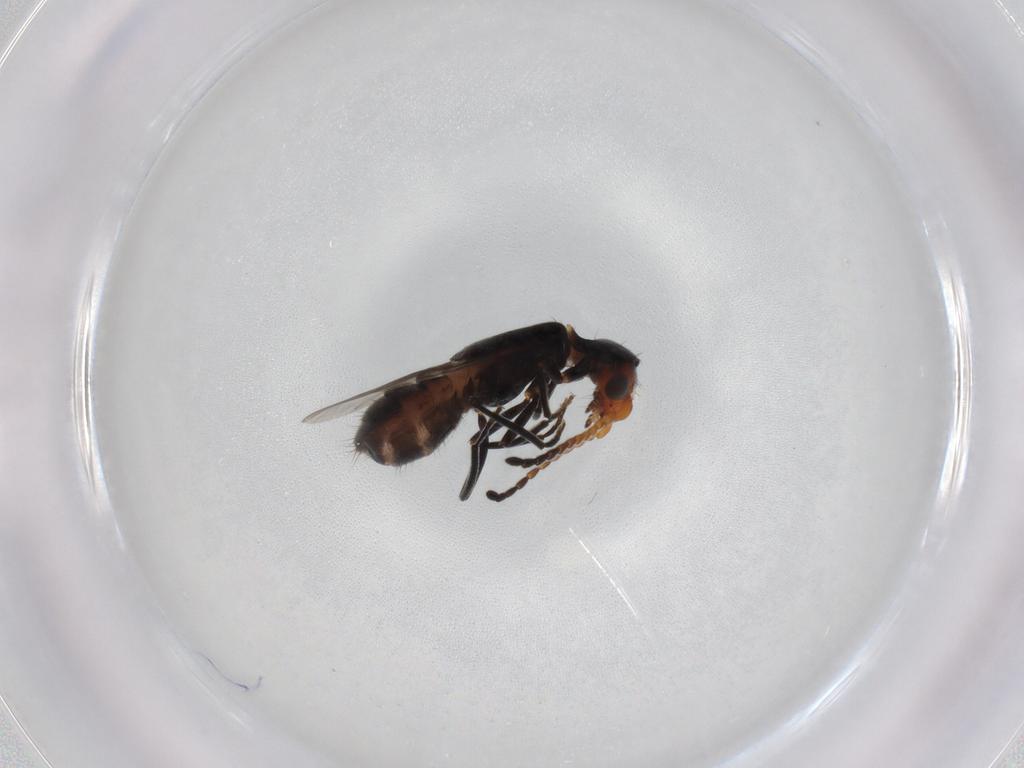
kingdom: Animalia
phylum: Arthropoda
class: Insecta
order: Coleoptera
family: Melyridae
